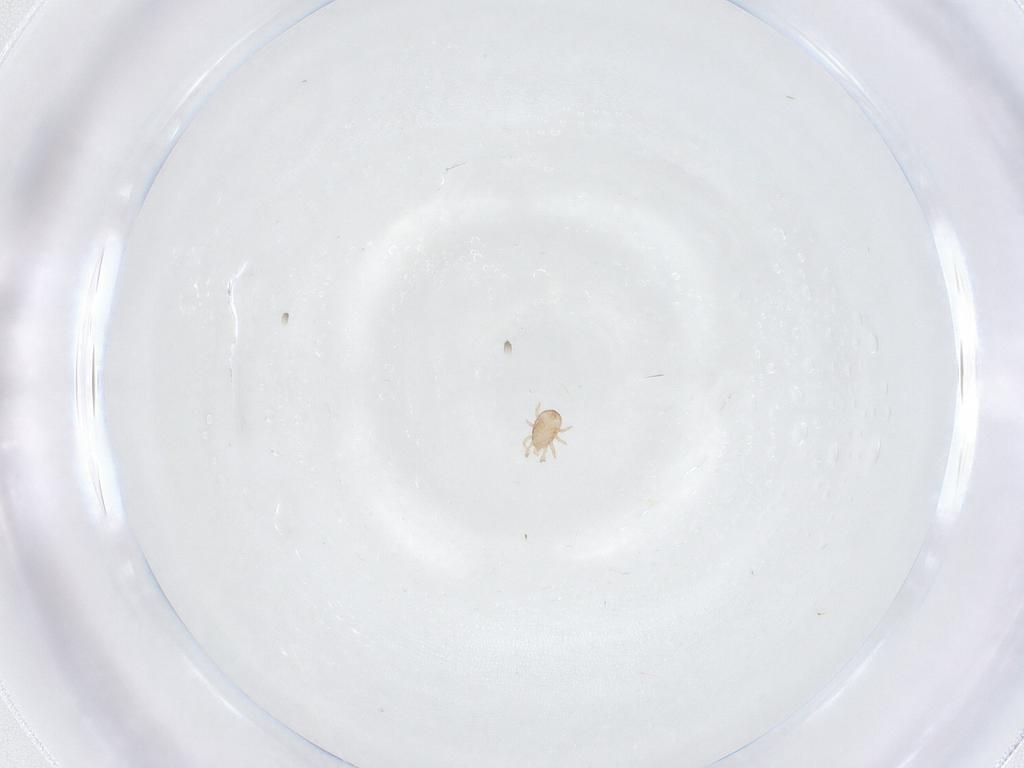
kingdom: Animalia
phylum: Arthropoda
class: Arachnida
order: Mesostigmata
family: Ascidae
